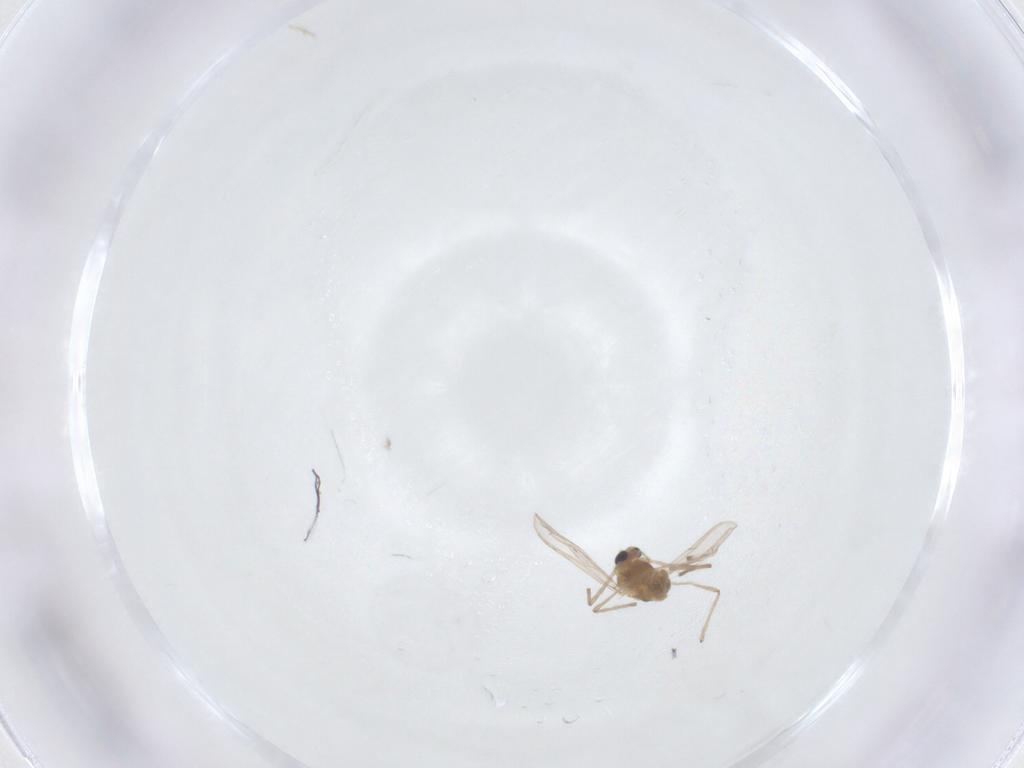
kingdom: Animalia
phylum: Arthropoda
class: Insecta
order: Diptera
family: Chironomidae
